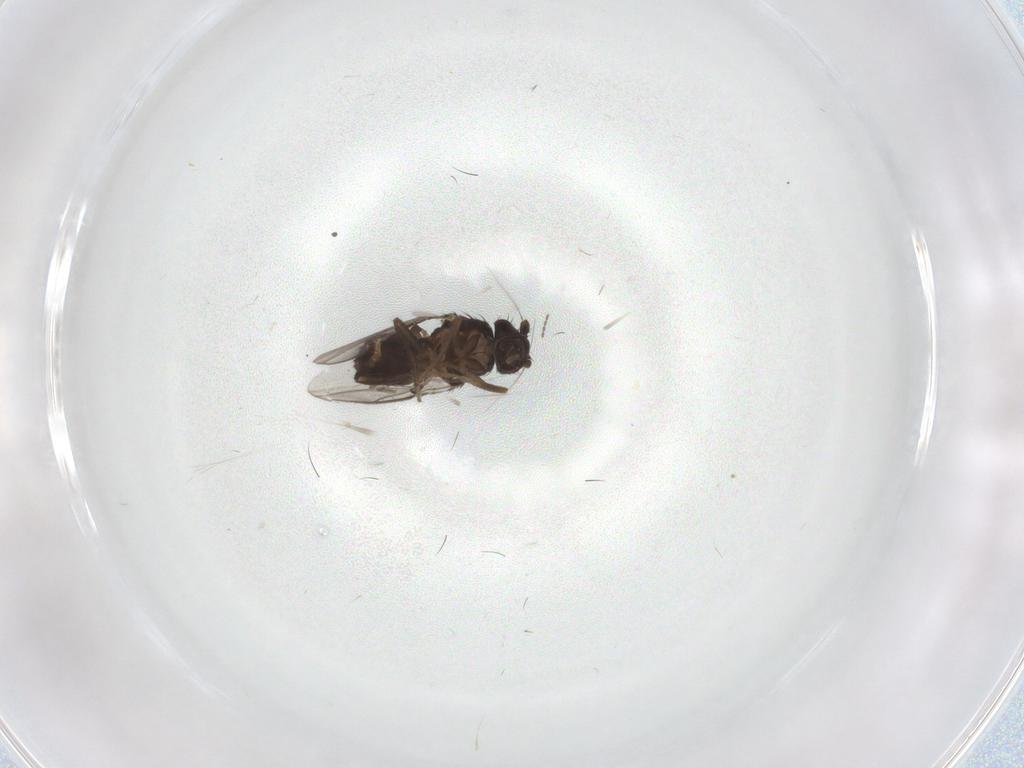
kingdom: Animalia
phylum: Arthropoda
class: Insecta
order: Diptera
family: Sphaeroceridae
